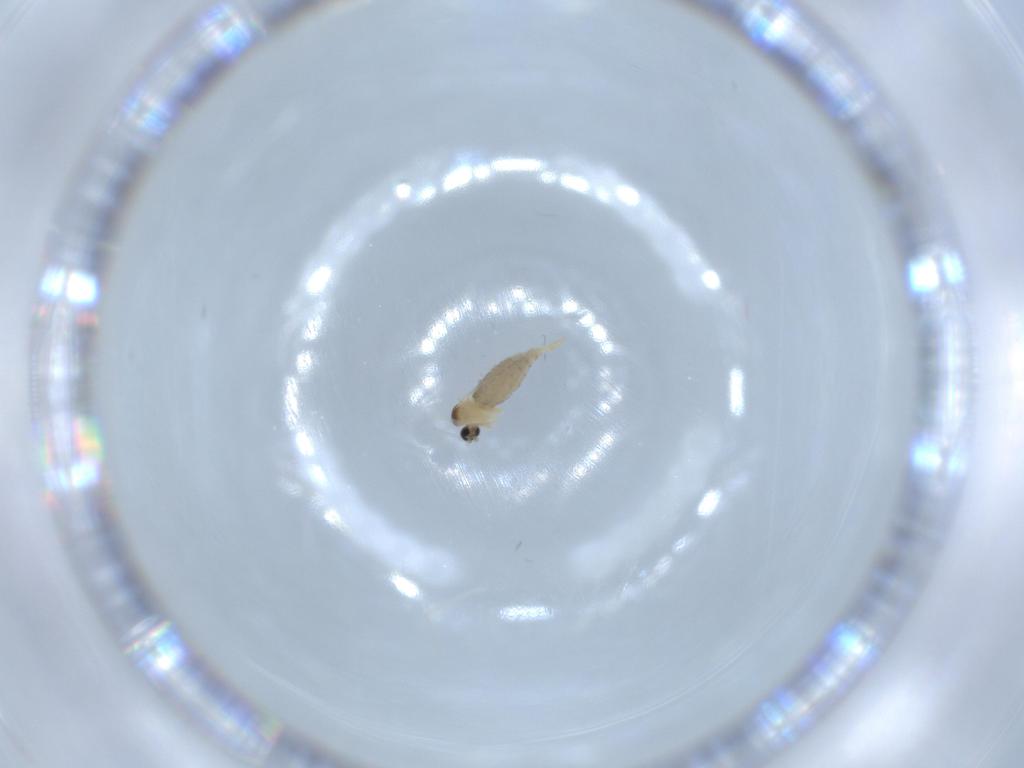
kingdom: Animalia
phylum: Arthropoda
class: Insecta
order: Diptera
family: Cecidomyiidae
